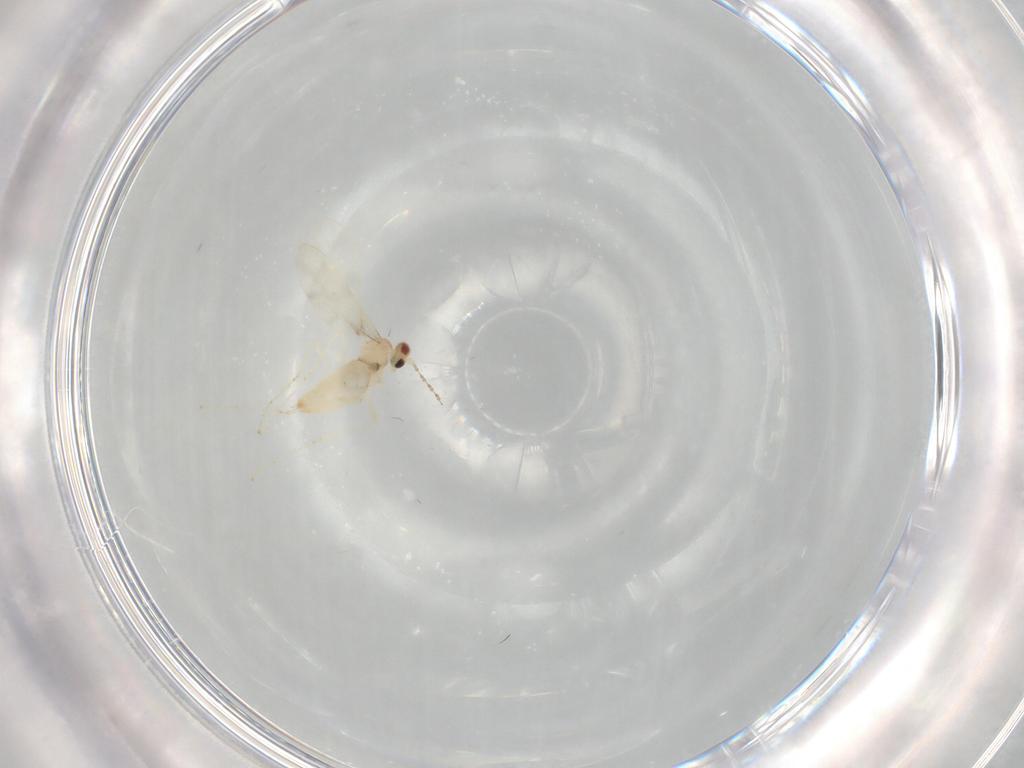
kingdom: Animalia
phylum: Arthropoda
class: Insecta
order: Diptera
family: Cecidomyiidae
